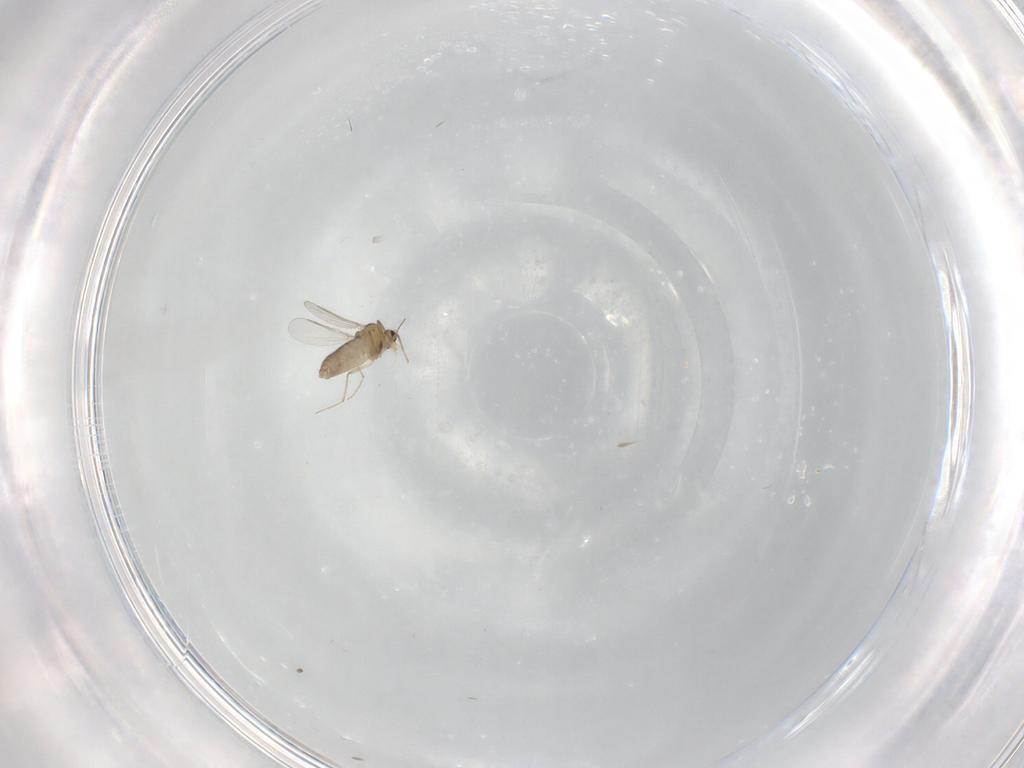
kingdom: Animalia
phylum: Arthropoda
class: Insecta
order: Diptera
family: Chironomidae
